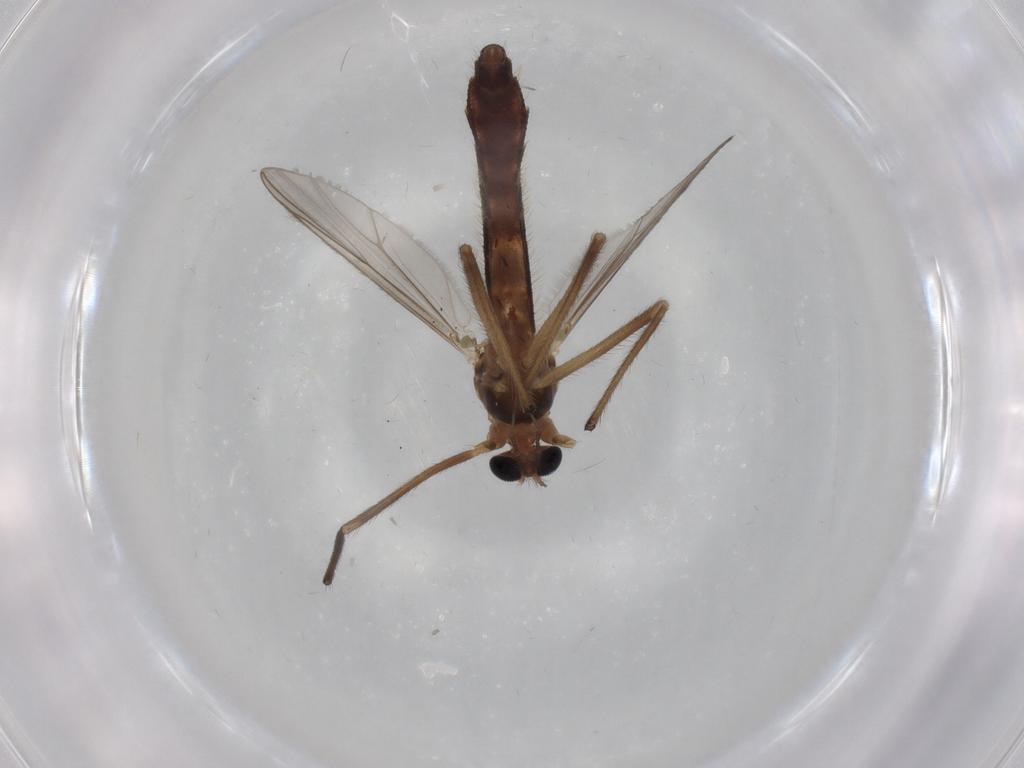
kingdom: Animalia
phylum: Arthropoda
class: Insecta
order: Diptera
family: Chironomidae
